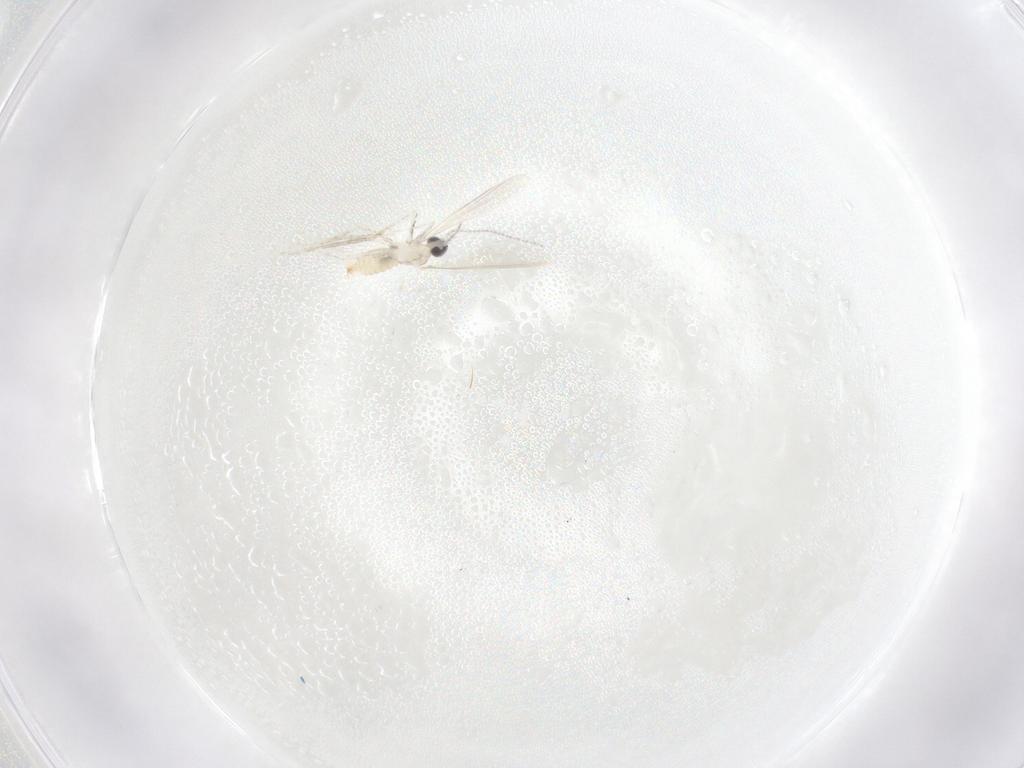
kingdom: Animalia
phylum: Arthropoda
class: Insecta
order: Diptera
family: Cecidomyiidae
